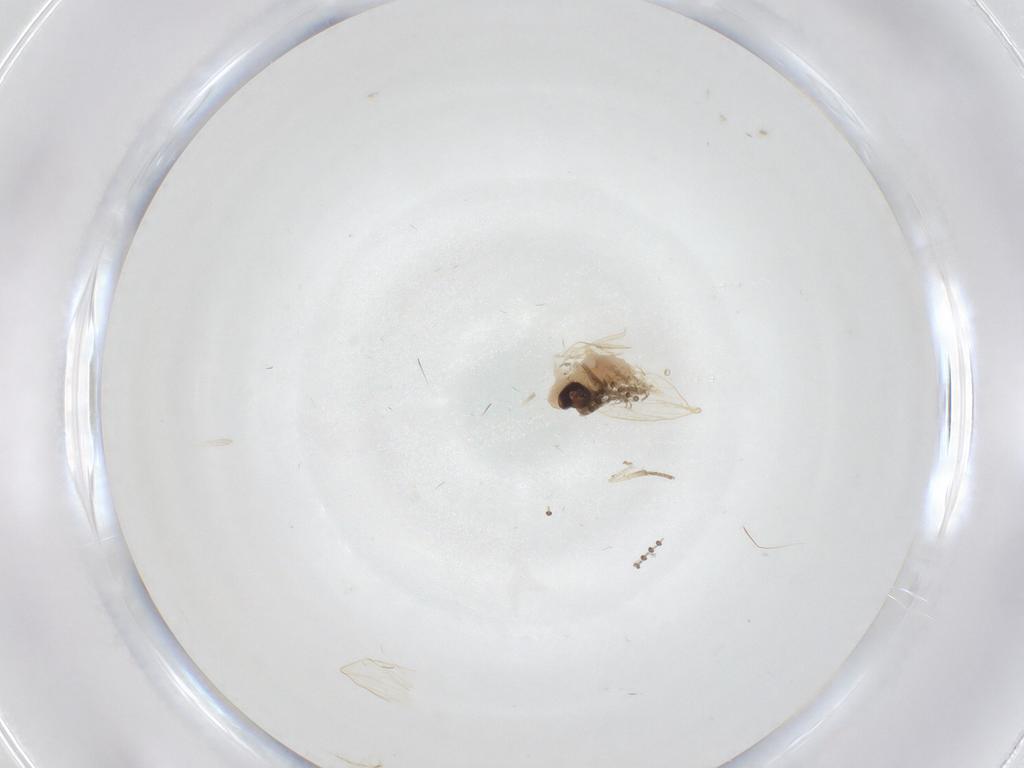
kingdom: Animalia
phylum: Arthropoda
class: Insecta
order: Diptera
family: Psychodidae
